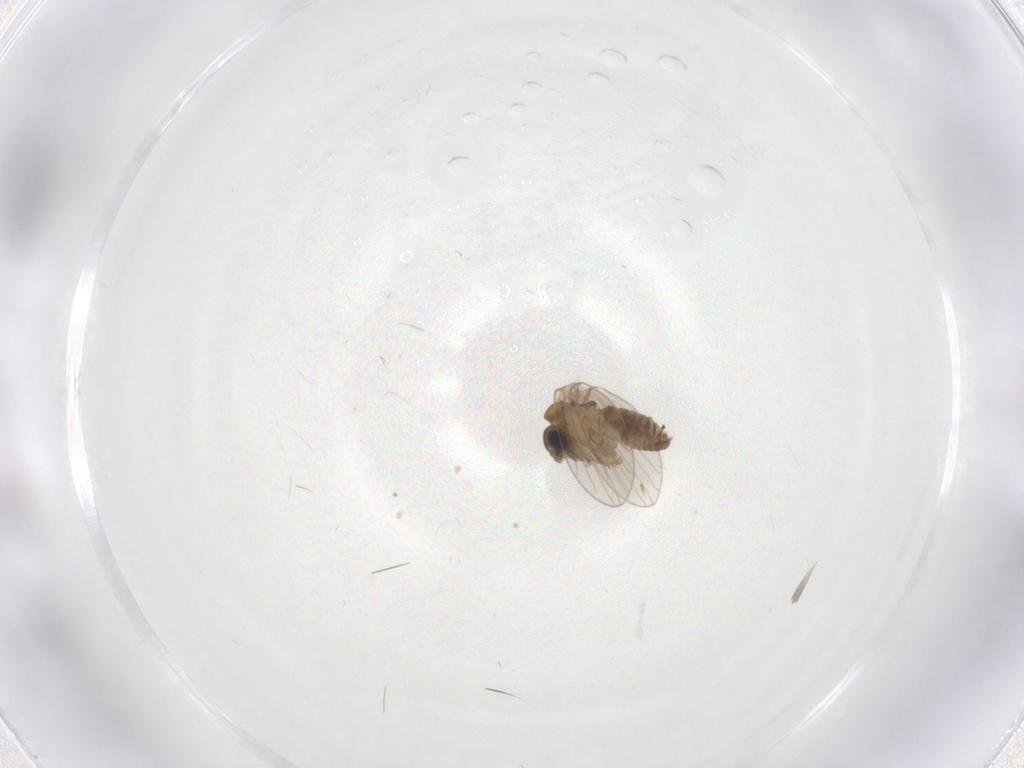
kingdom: Animalia
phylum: Arthropoda
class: Insecta
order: Diptera
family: Psychodidae
